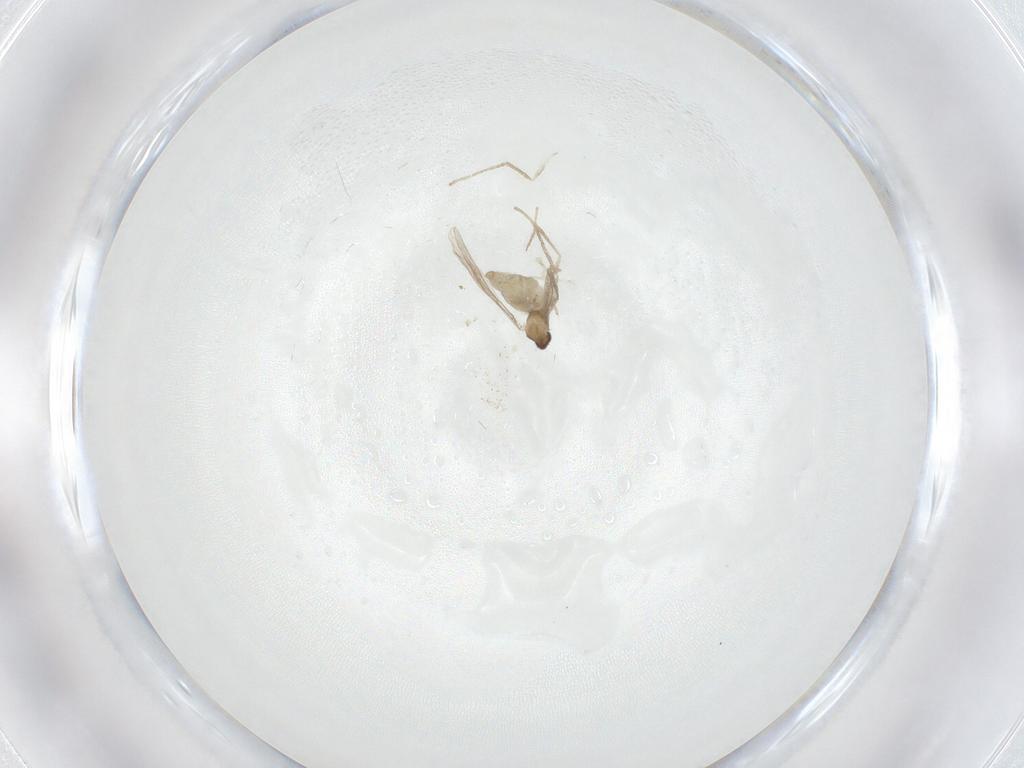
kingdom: Animalia
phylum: Arthropoda
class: Insecta
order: Diptera
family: Cecidomyiidae
